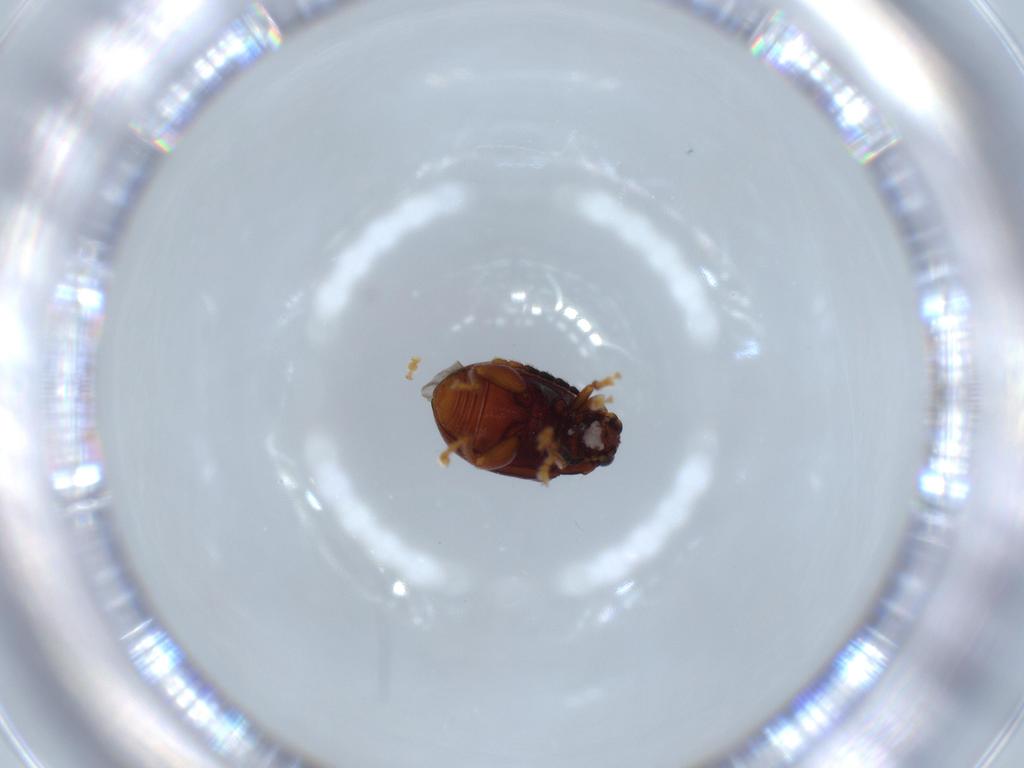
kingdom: Animalia
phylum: Arthropoda
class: Insecta
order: Coleoptera
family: Chrysomelidae
